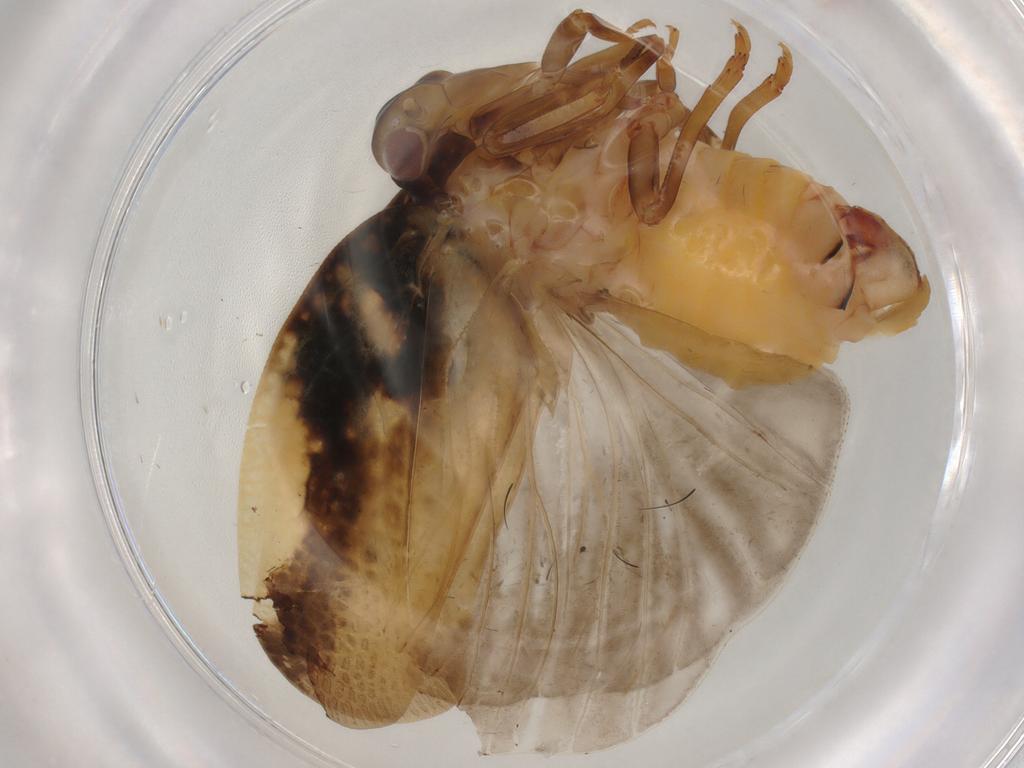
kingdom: Animalia
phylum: Arthropoda
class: Insecta
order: Hemiptera
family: Flatidae
